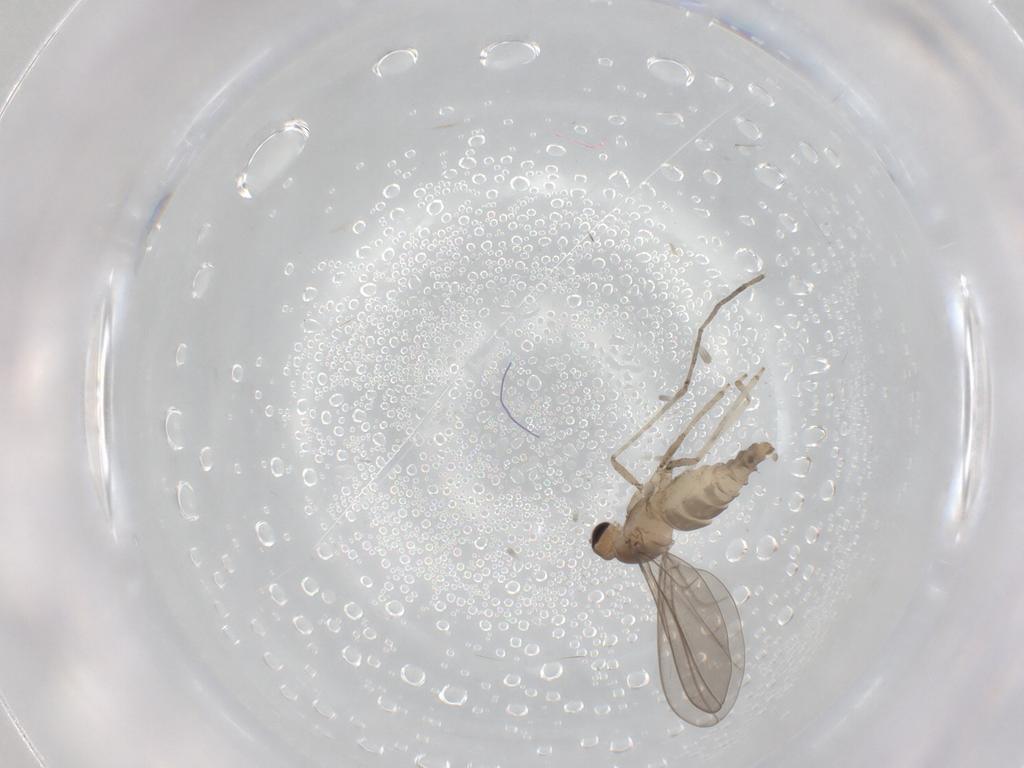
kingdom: Animalia
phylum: Arthropoda
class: Insecta
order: Diptera
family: Cecidomyiidae
